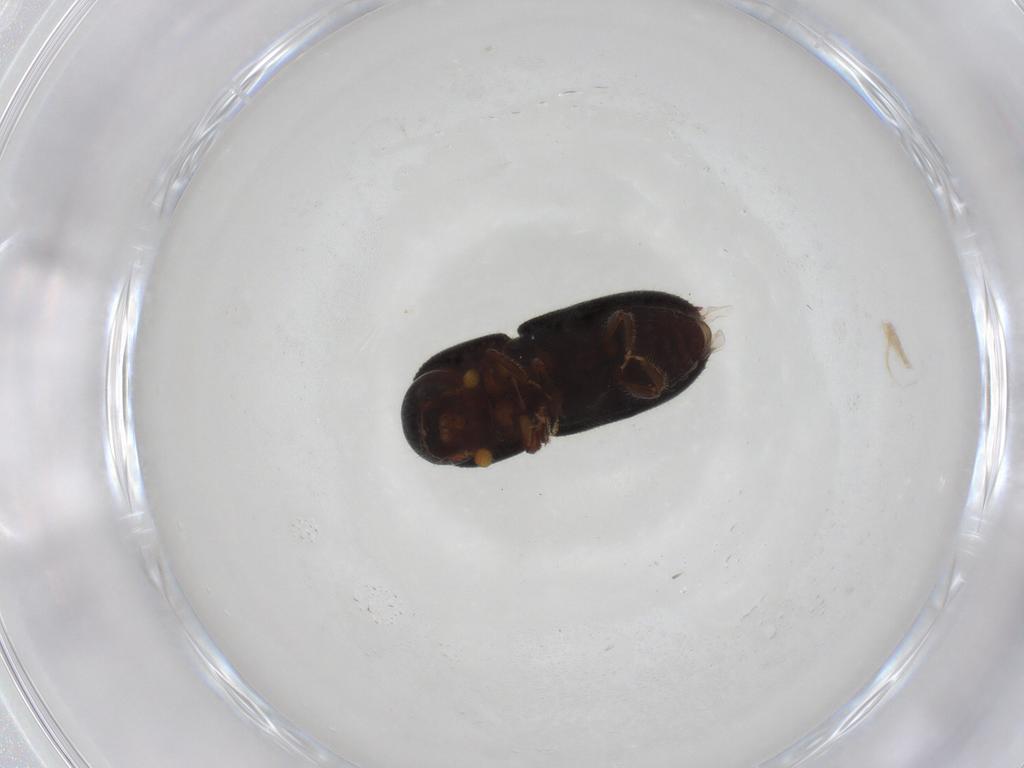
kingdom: Animalia
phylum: Arthropoda
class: Insecta
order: Coleoptera
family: Curculionidae
